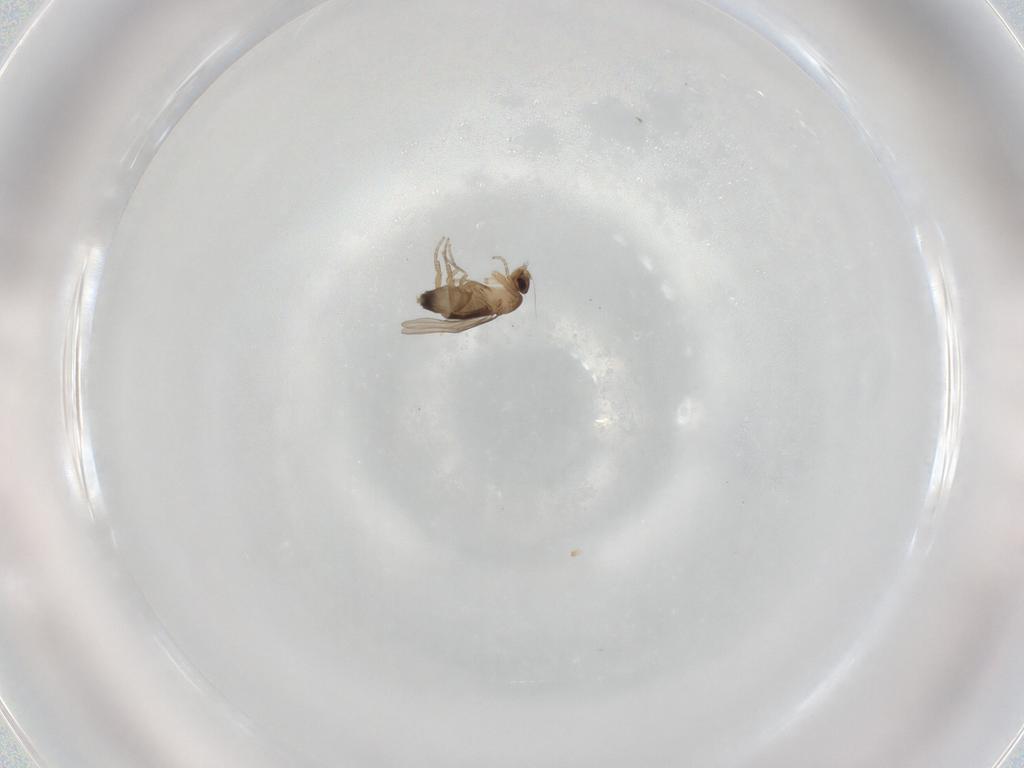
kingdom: Animalia
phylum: Arthropoda
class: Insecta
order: Diptera
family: Phoridae
